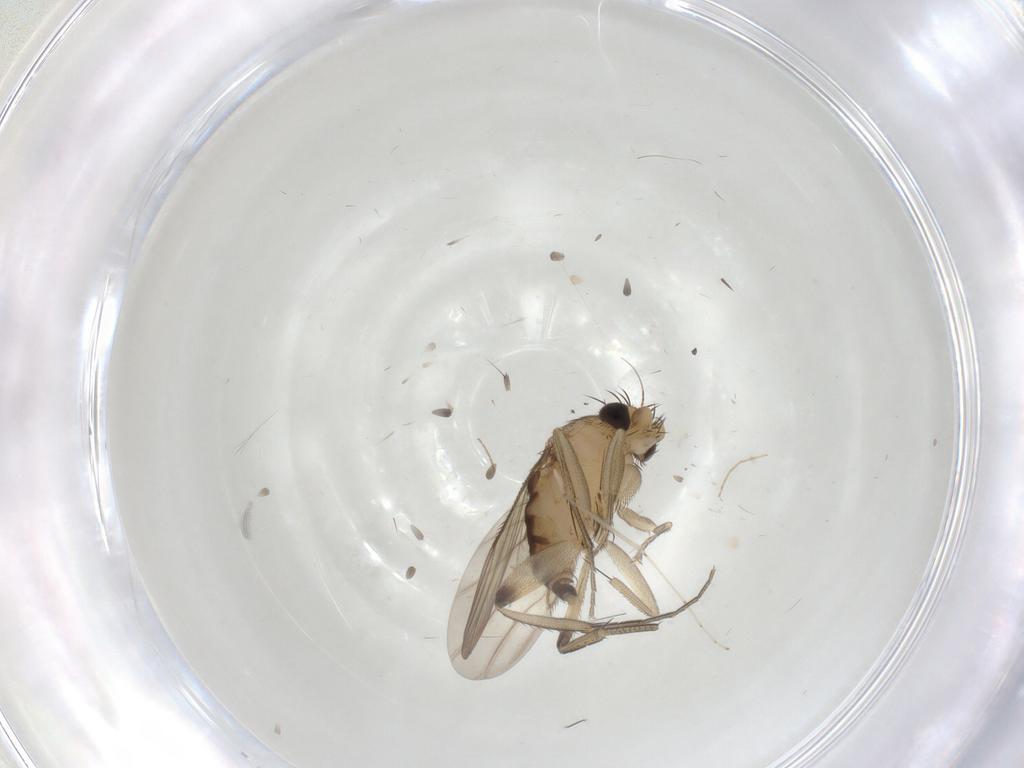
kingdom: Animalia
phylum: Arthropoda
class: Insecta
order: Diptera
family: Phoridae
